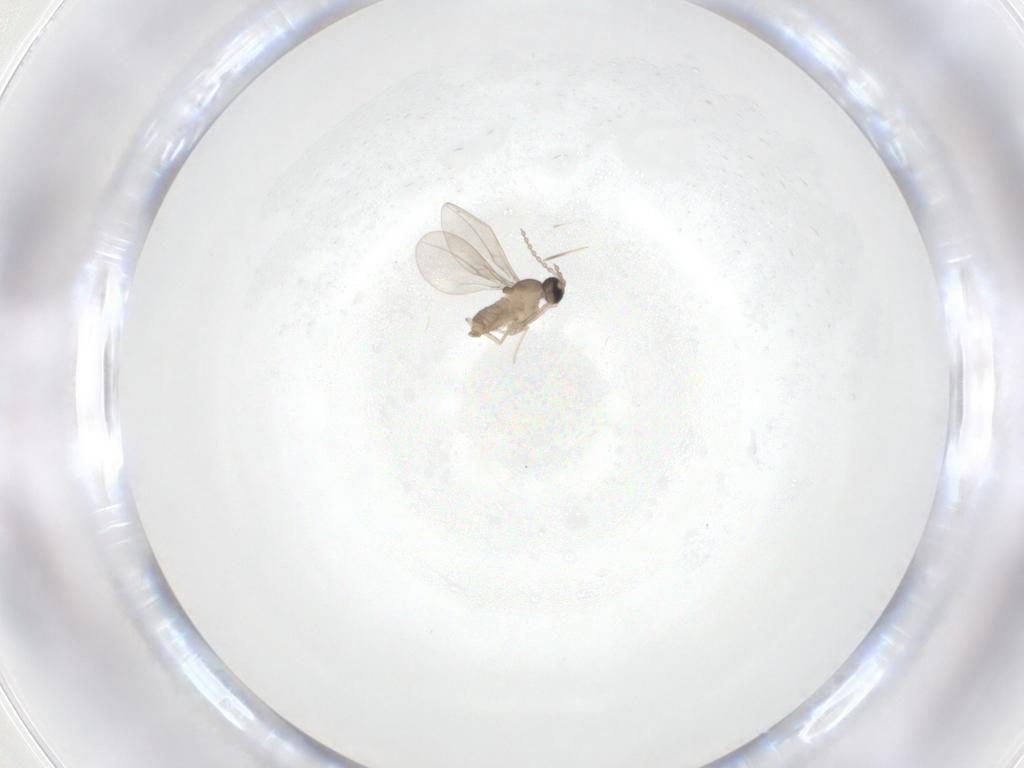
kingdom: Animalia
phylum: Arthropoda
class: Insecta
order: Diptera
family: Cecidomyiidae
